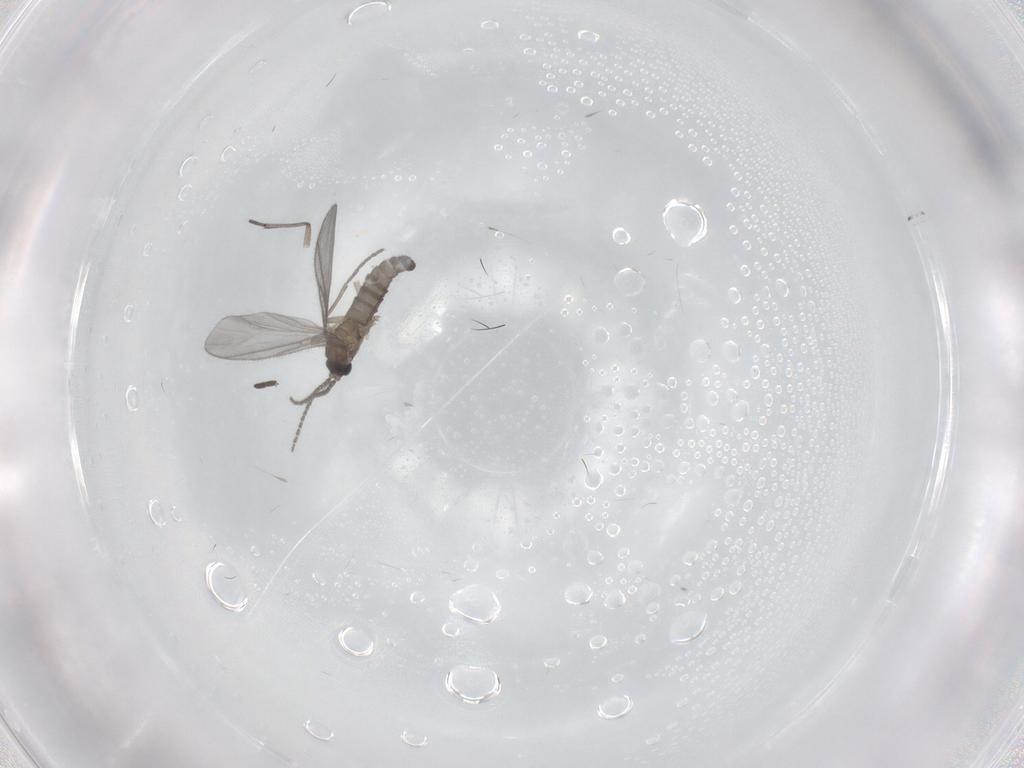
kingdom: Animalia
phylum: Arthropoda
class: Insecta
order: Diptera
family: Sciaridae
